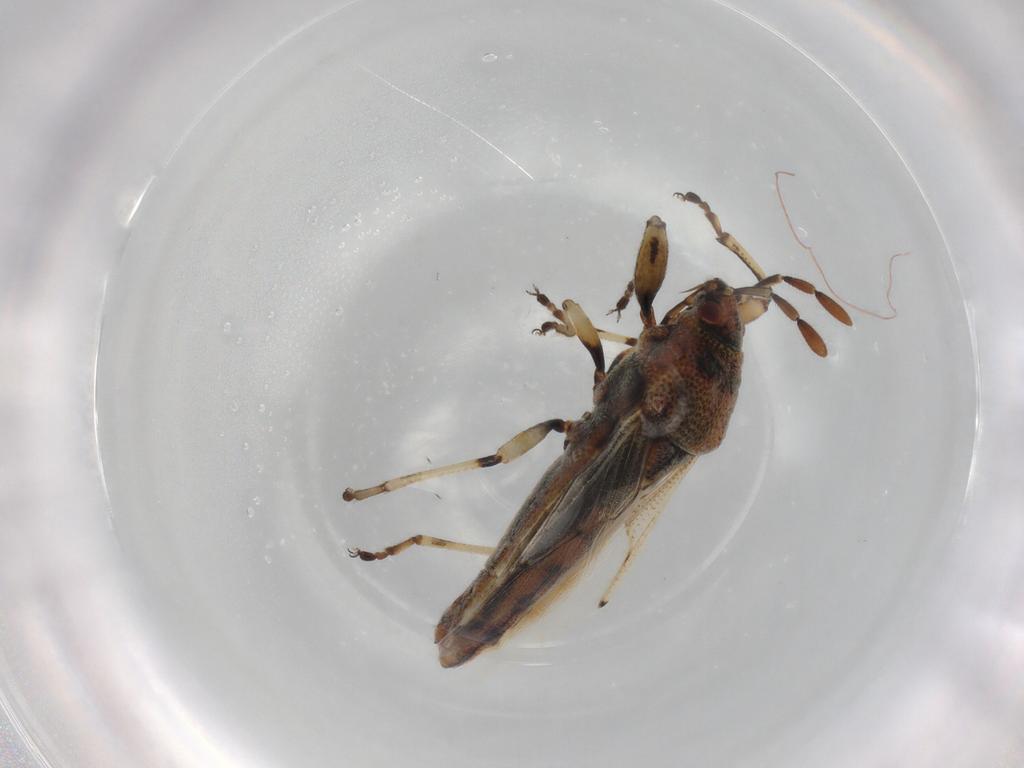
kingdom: Animalia
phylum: Arthropoda
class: Insecta
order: Hemiptera
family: Pachygronthidae
